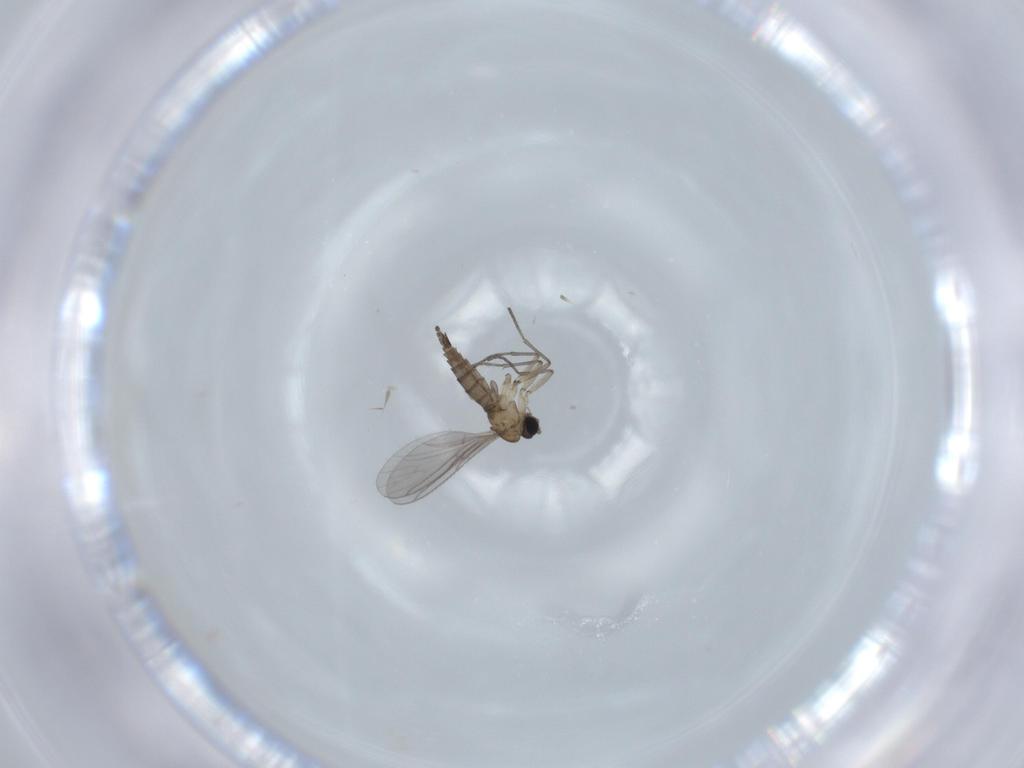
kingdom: Animalia
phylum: Arthropoda
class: Insecta
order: Diptera
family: Sciaridae
